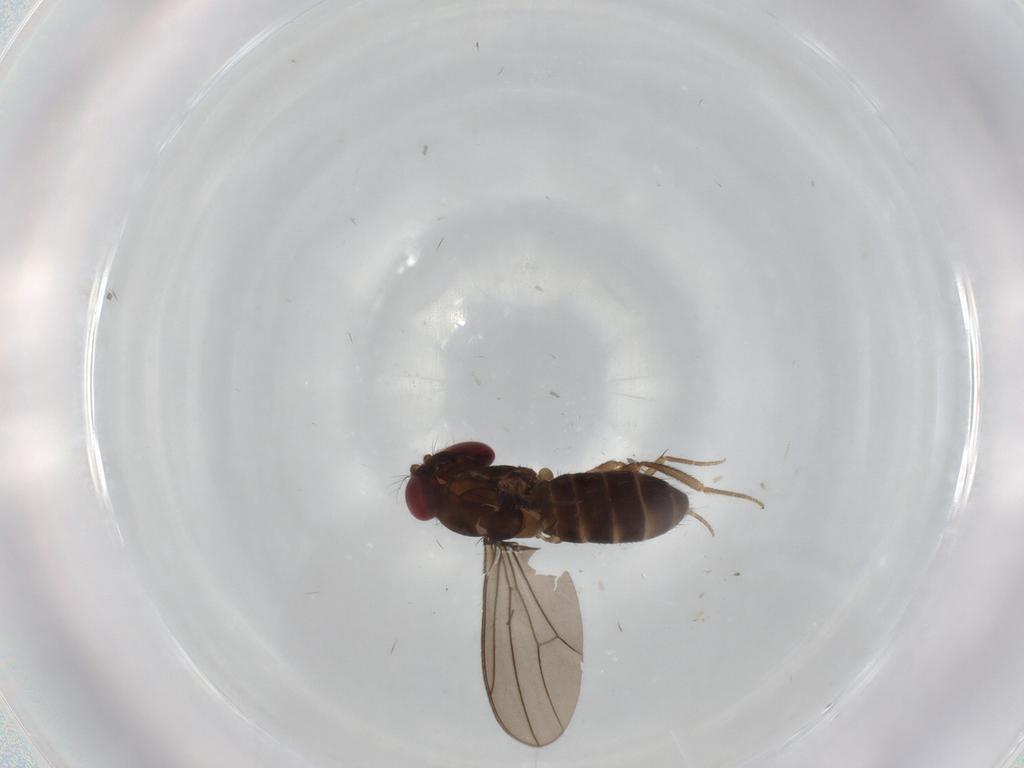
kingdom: Animalia
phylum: Arthropoda
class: Insecta
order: Diptera
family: Drosophilidae
